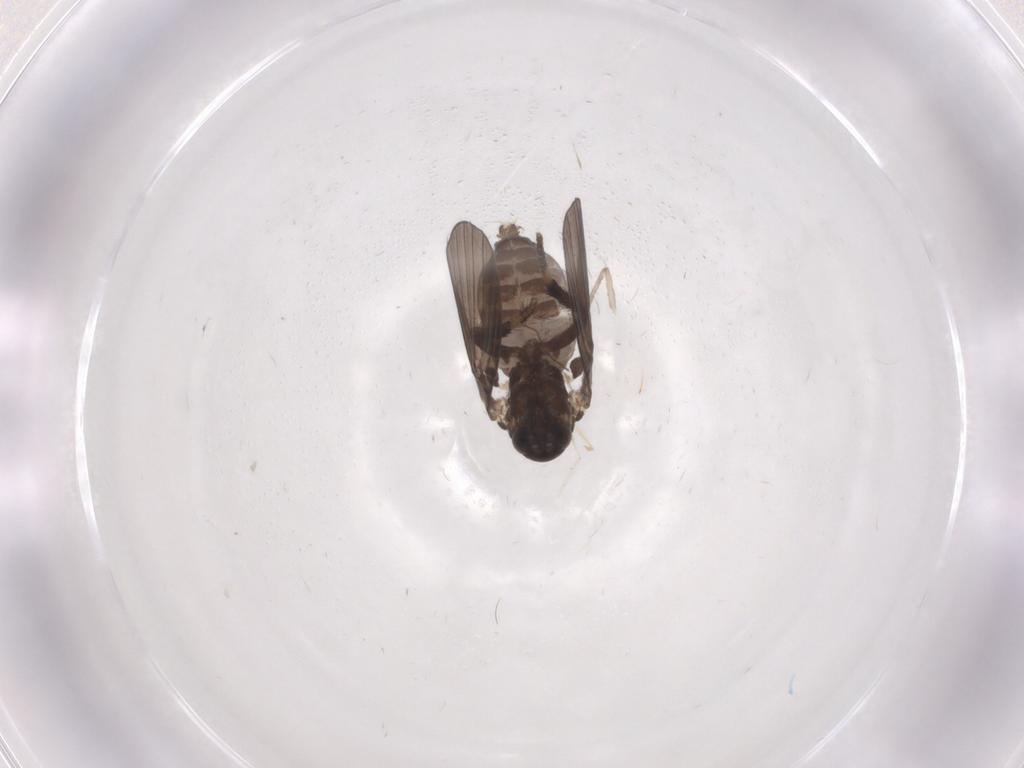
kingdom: Animalia
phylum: Arthropoda
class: Insecta
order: Diptera
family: Psychodidae
